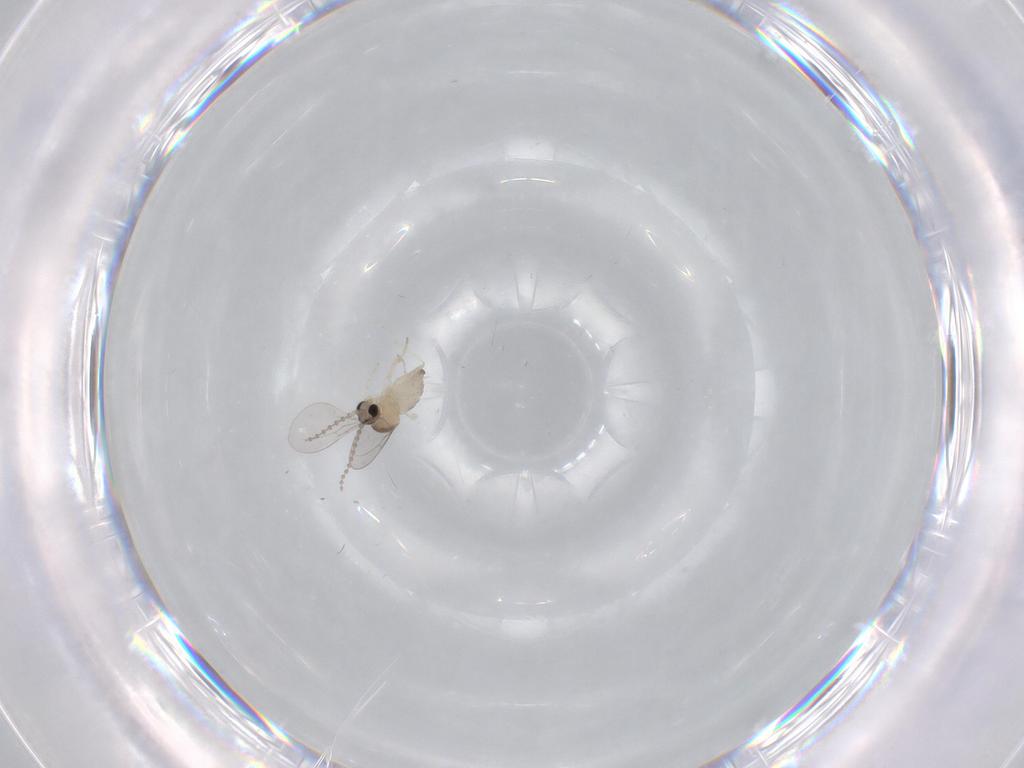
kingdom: Animalia
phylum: Arthropoda
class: Insecta
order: Diptera
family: Cecidomyiidae
